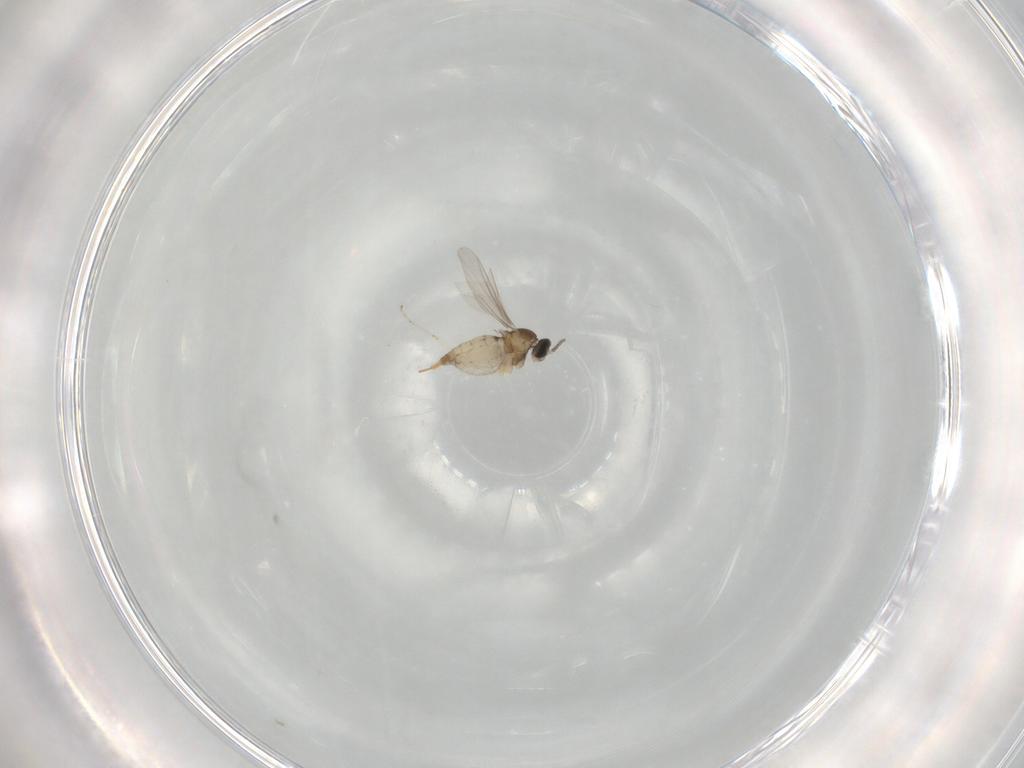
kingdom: Animalia
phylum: Arthropoda
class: Insecta
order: Diptera
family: Cecidomyiidae
